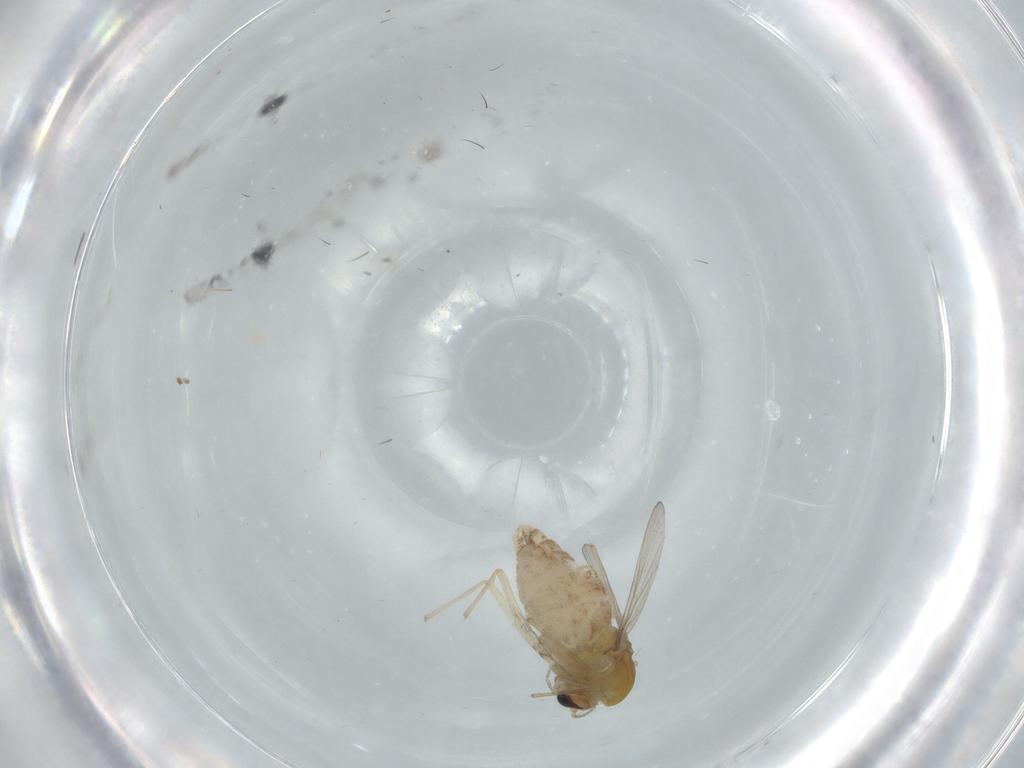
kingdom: Animalia
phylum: Arthropoda
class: Insecta
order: Diptera
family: Chironomidae
